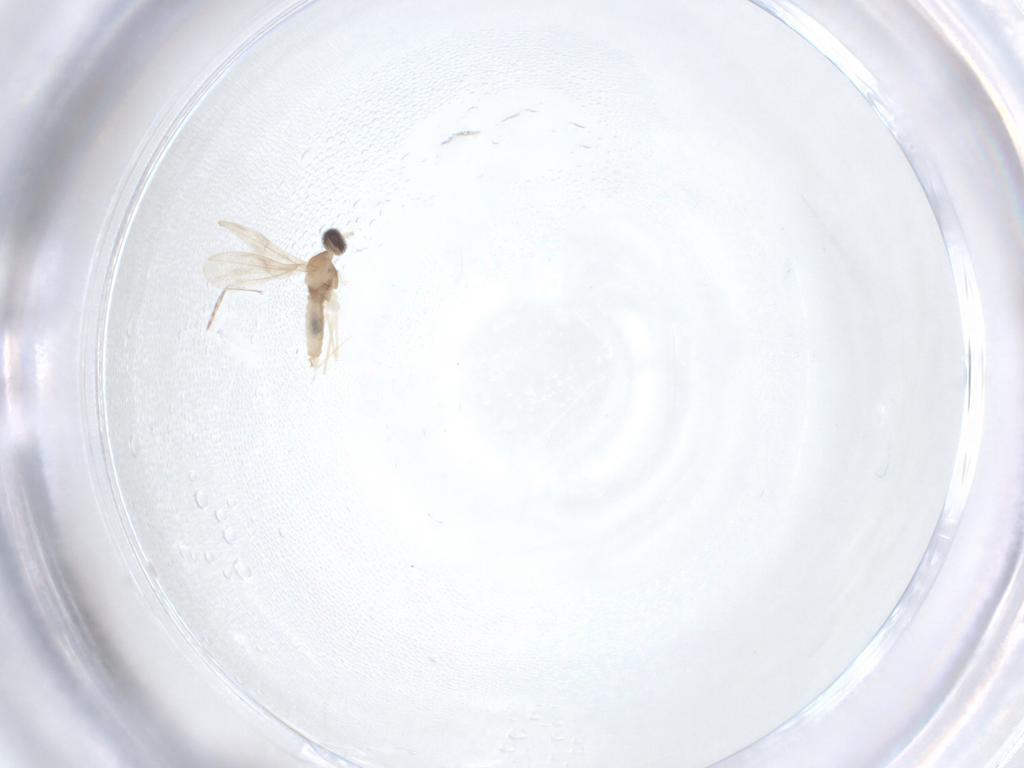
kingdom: Animalia
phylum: Arthropoda
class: Insecta
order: Diptera
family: Cecidomyiidae
